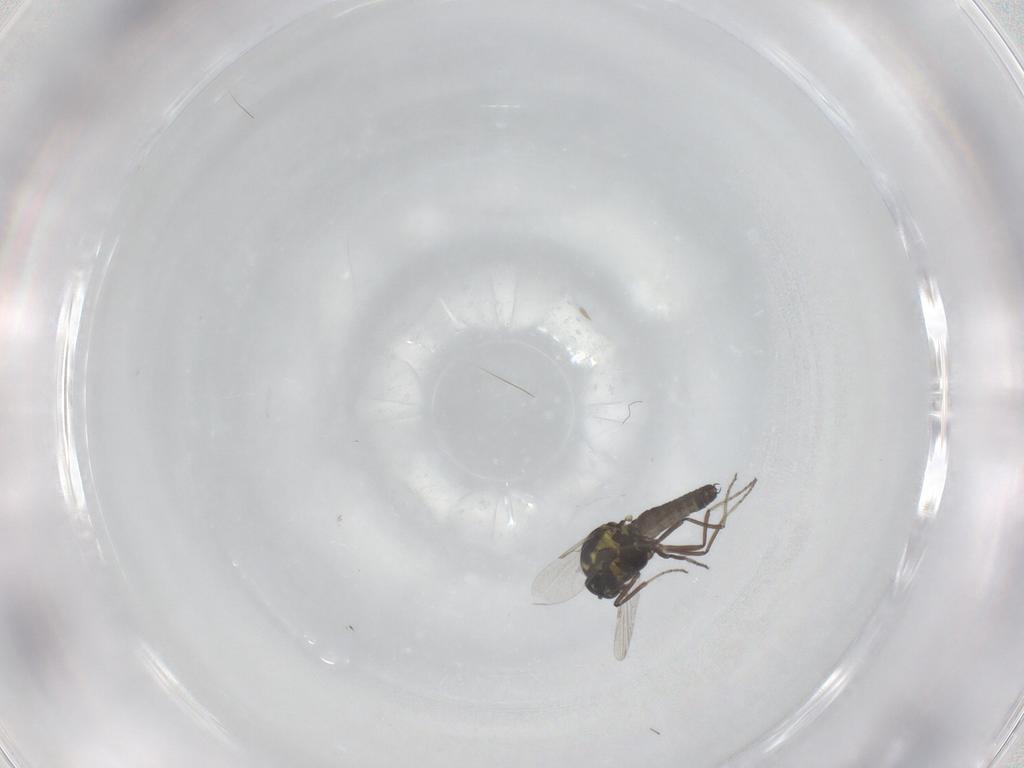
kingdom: Animalia
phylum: Arthropoda
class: Insecta
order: Diptera
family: Ceratopogonidae
